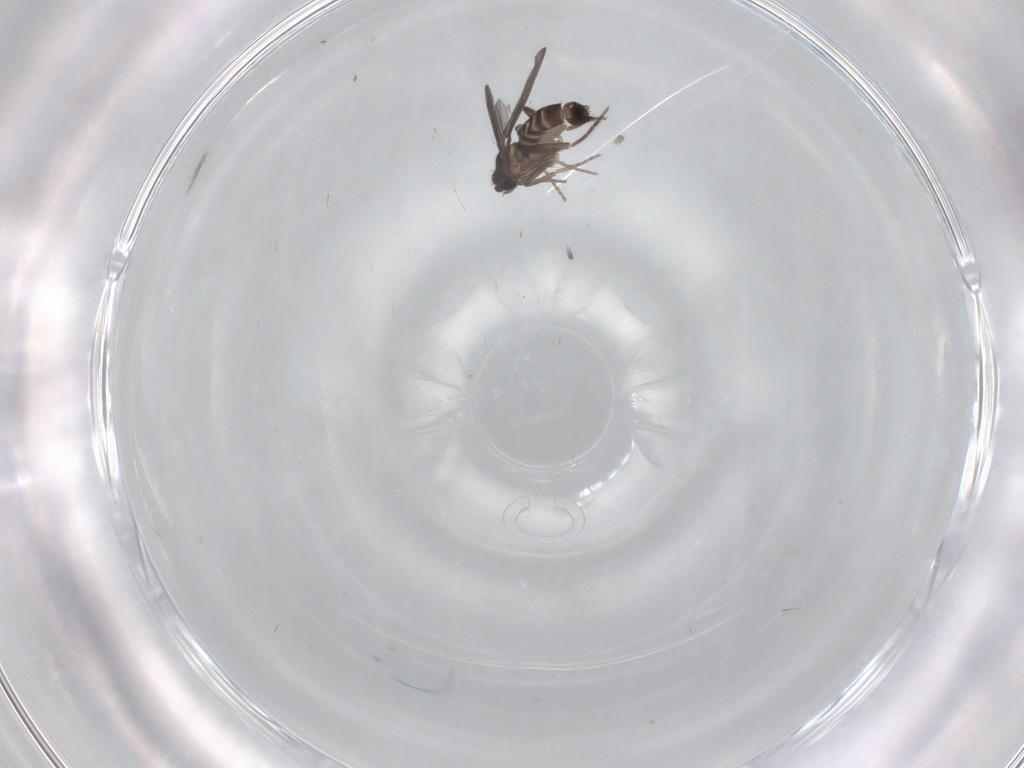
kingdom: Animalia
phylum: Arthropoda
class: Insecta
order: Diptera
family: Phoridae
